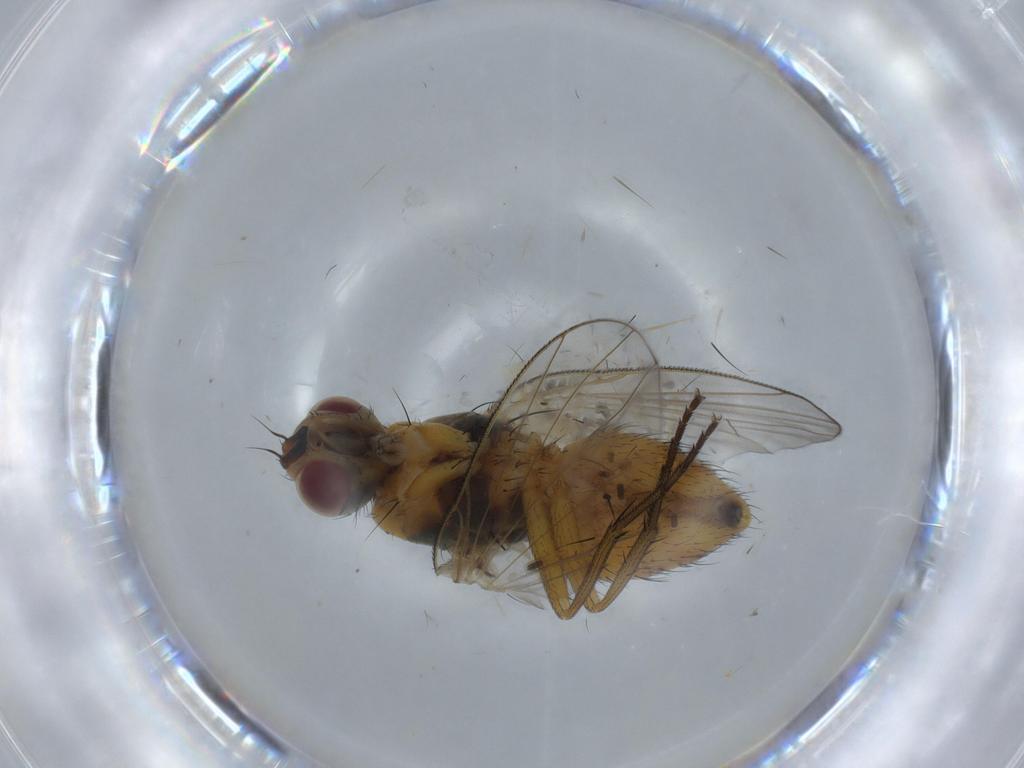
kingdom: Animalia
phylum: Arthropoda
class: Insecta
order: Diptera
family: Muscidae
